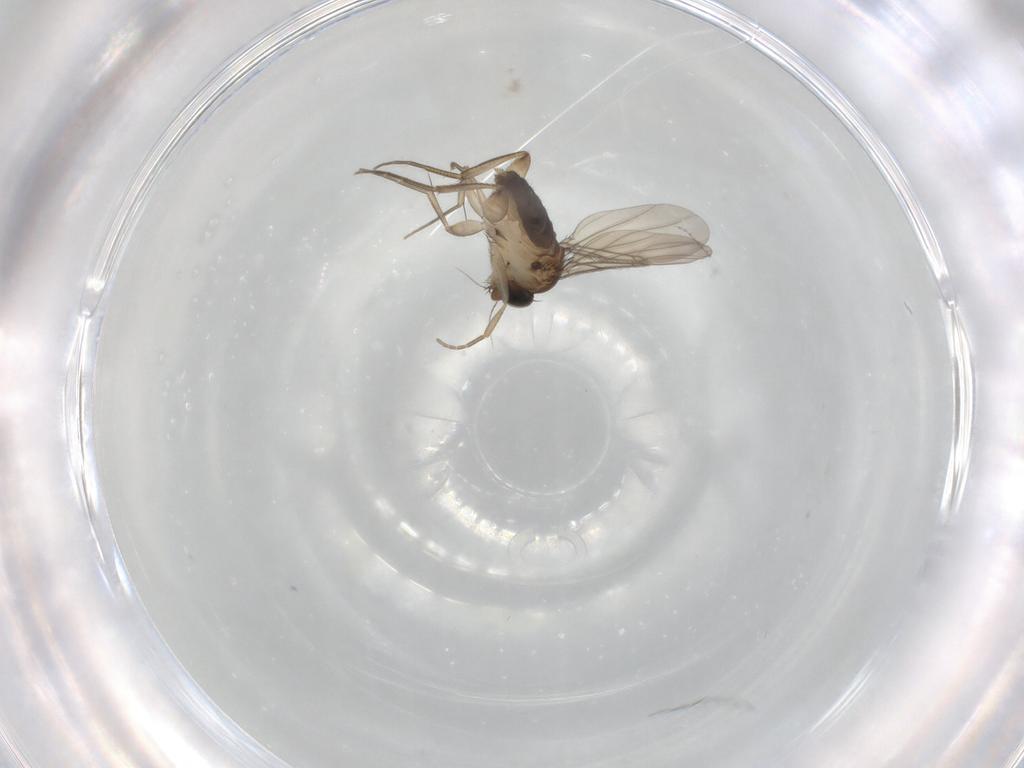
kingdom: Animalia
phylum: Arthropoda
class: Insecta
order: Diptera
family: Phoridae
